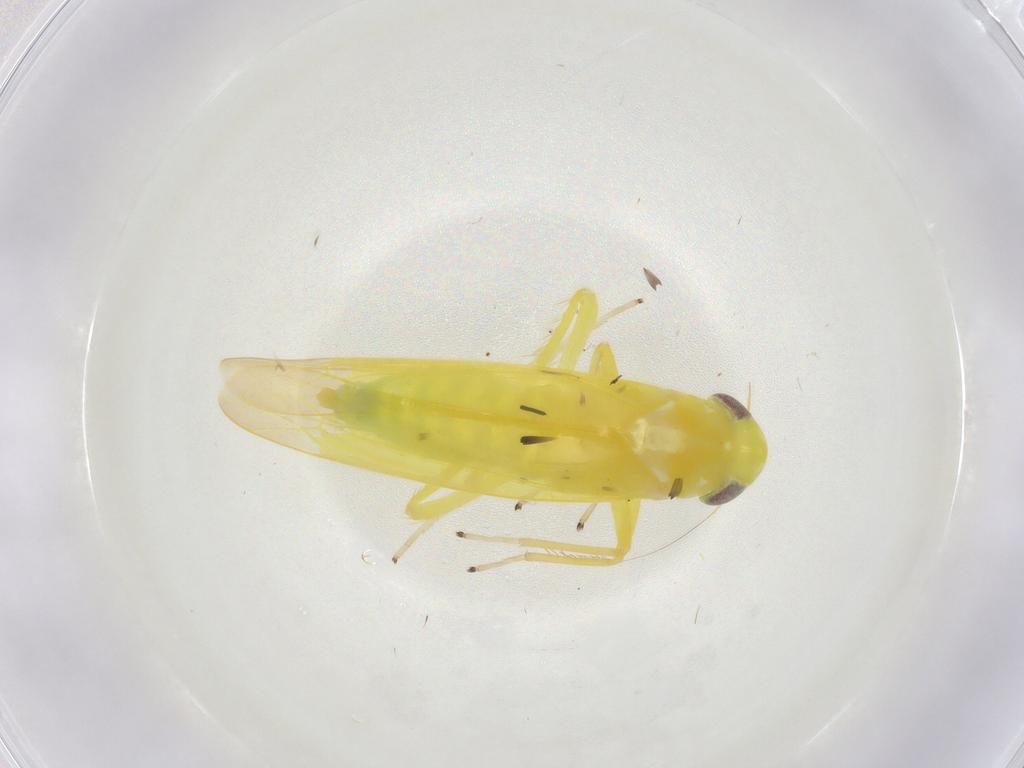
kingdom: Animalia
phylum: Arthropoda
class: Insecta
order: Hemiptera
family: Cicadellidae
